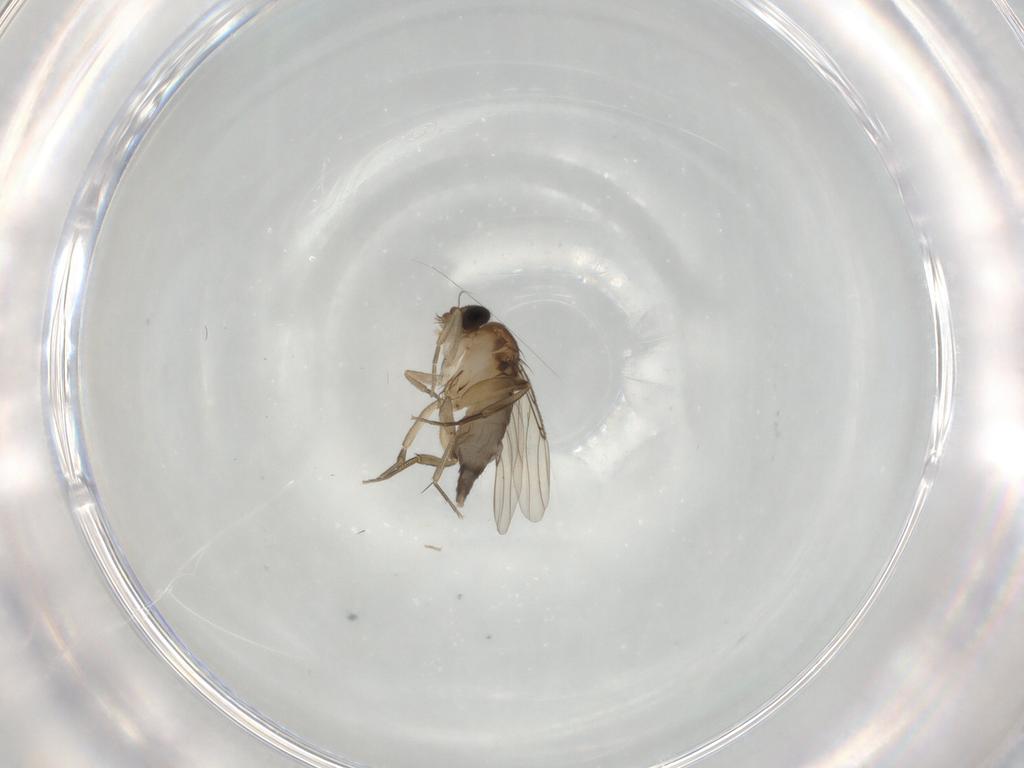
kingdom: Animalia
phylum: Arthropoda
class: Insecta
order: Diptera
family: Phoridae
